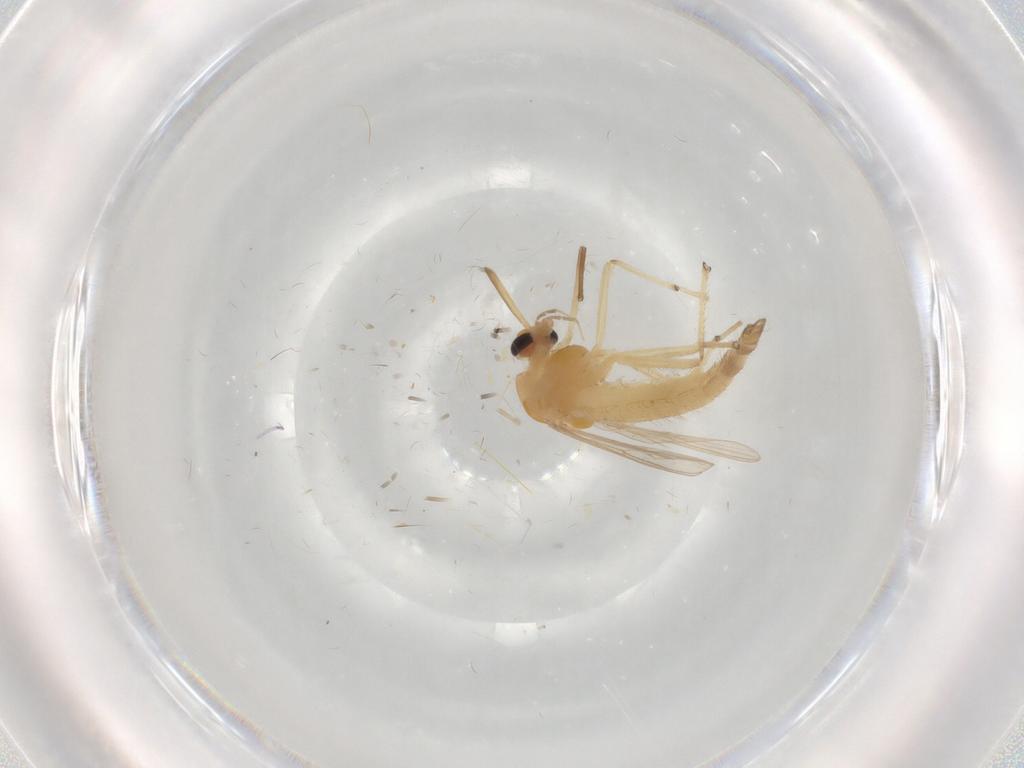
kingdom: Animalia
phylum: Arthropoda
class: Insecta
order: Diptera
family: Chironomidae
